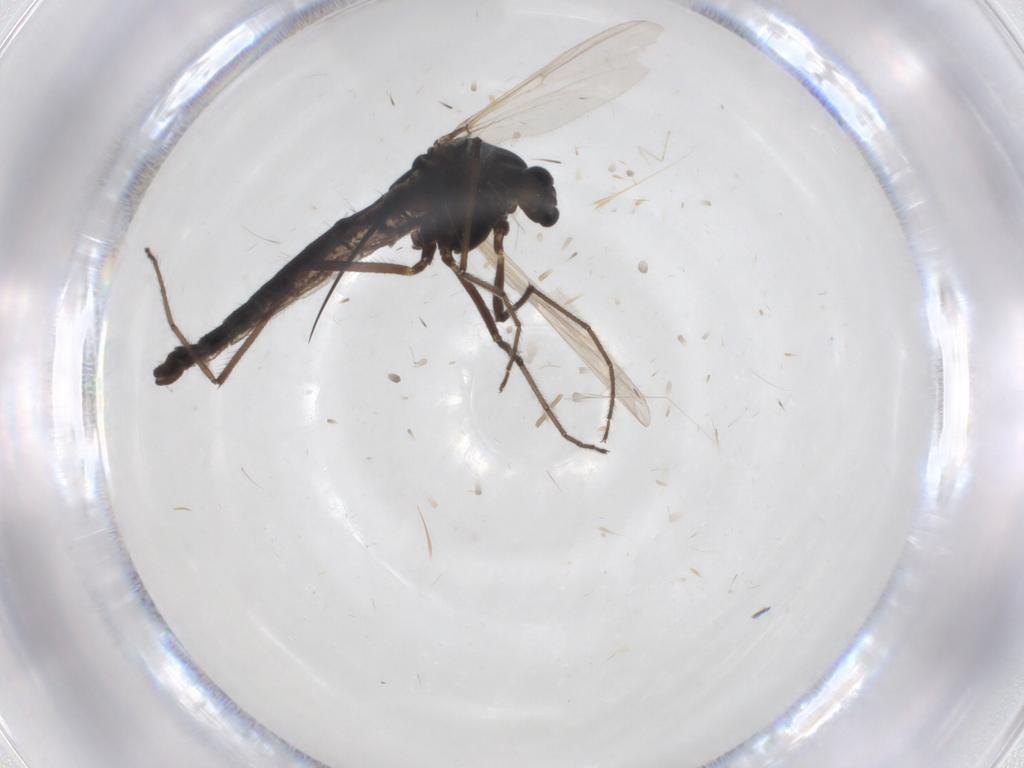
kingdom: Animalia
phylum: Arthropoda
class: Insecta
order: Diptera
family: Chironomidae
